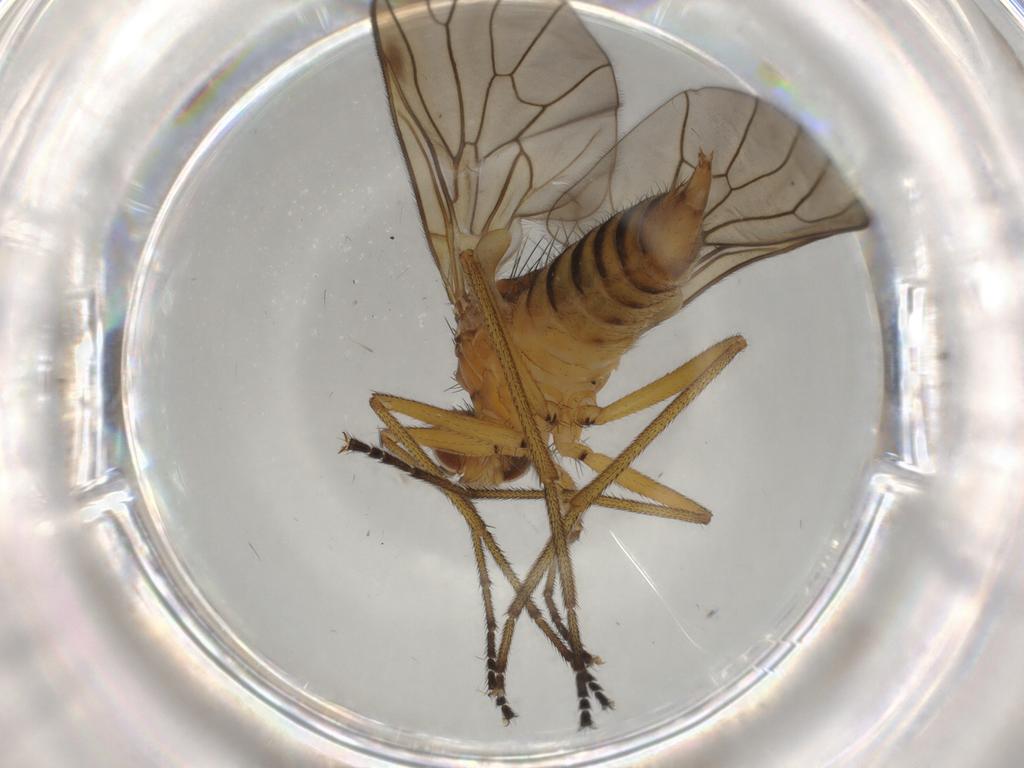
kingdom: Animalia
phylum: Arthropoda
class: Insecta
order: Diptera
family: Brachystomatidae
